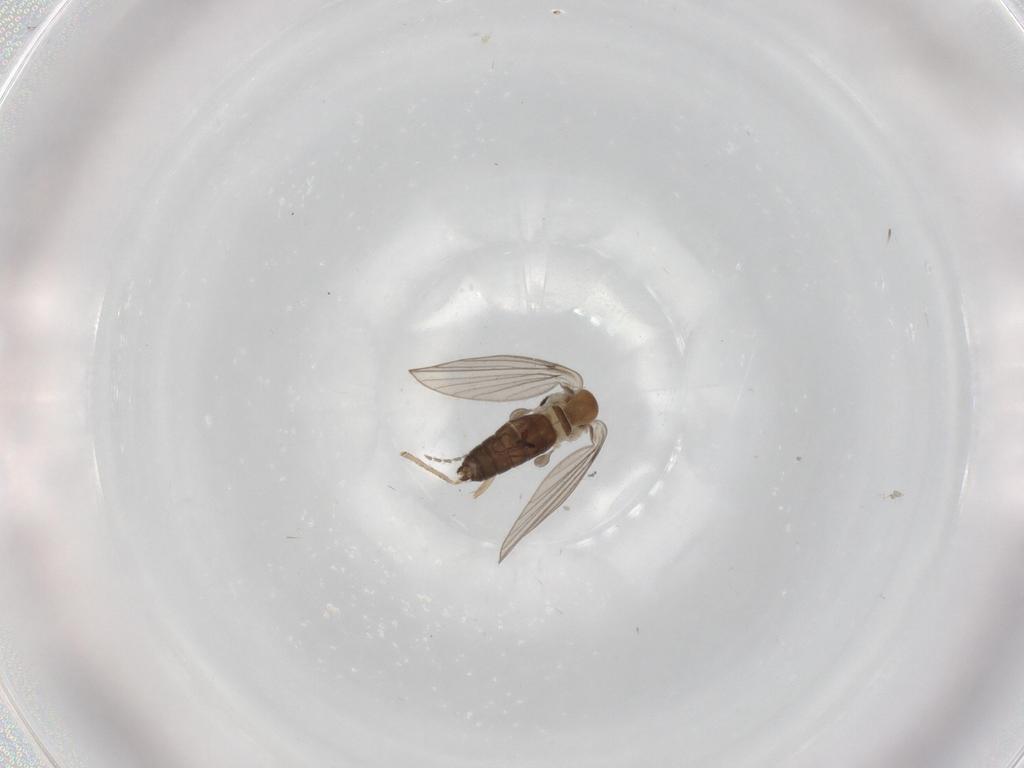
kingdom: Animalia
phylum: Arthropoda
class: Insecta
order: Diptera
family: Psychodidae
